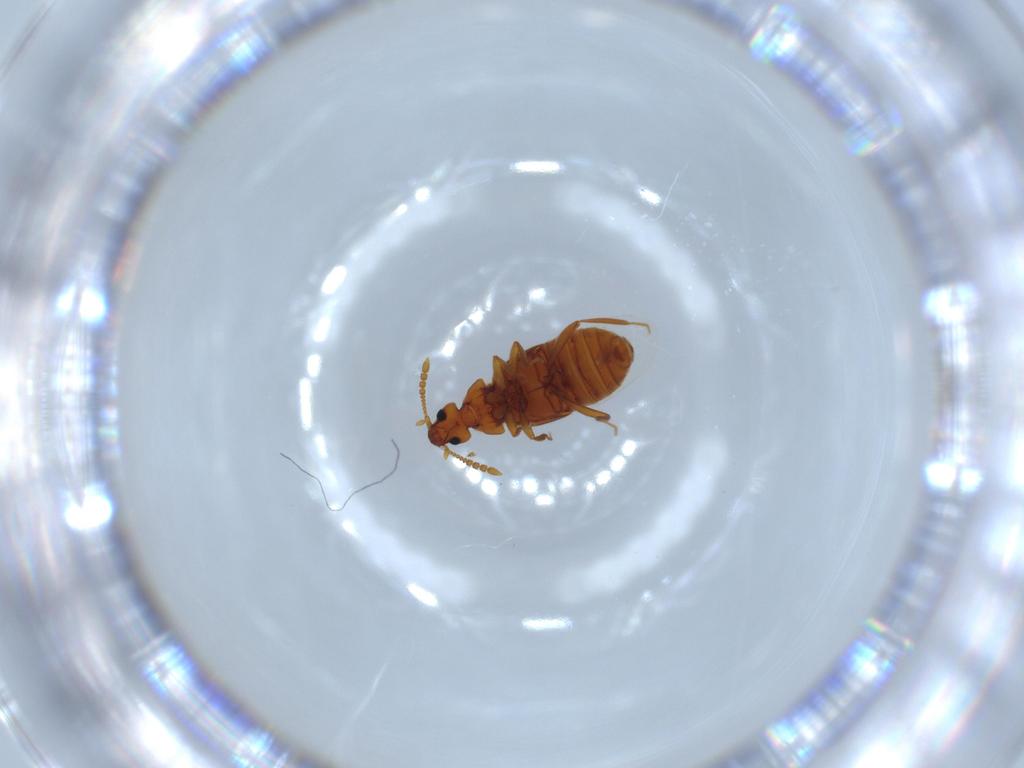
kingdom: Animalia
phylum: Arthropoda
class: Insecta
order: Coleoptera
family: Staphylinidae
